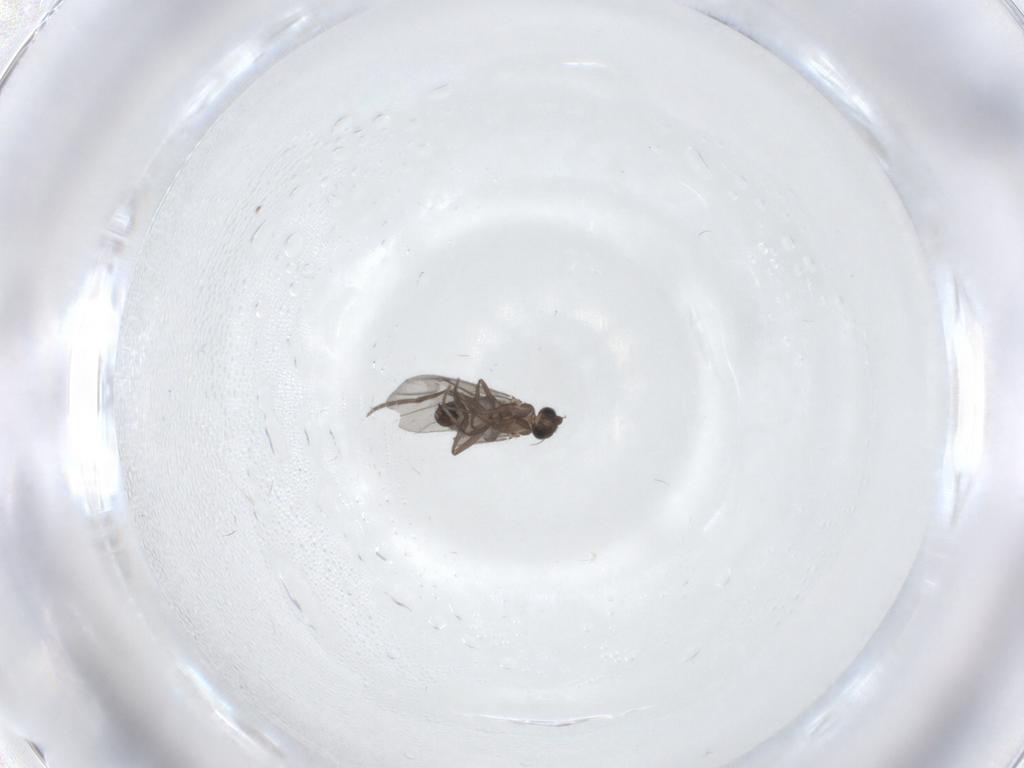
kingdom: Animalia
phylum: Arthropoda
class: Insecta
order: Diptera
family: Phoridae
